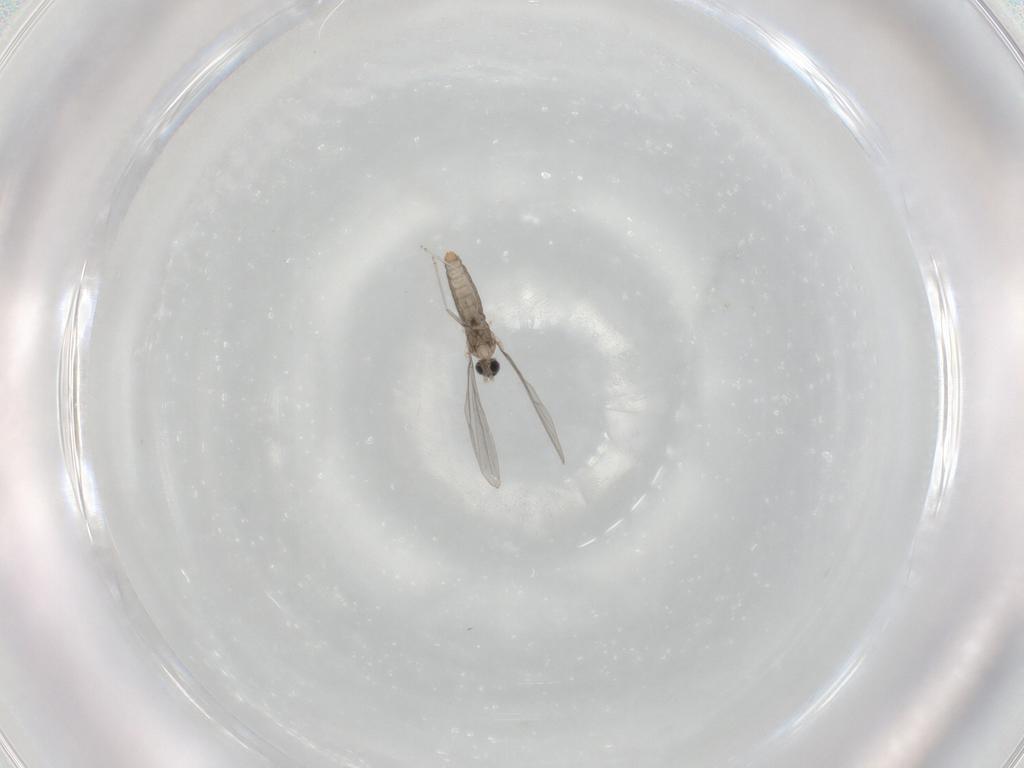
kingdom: Animalia
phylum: Arthropoda
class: Insecta
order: Diptera
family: Cecidomyiidae
